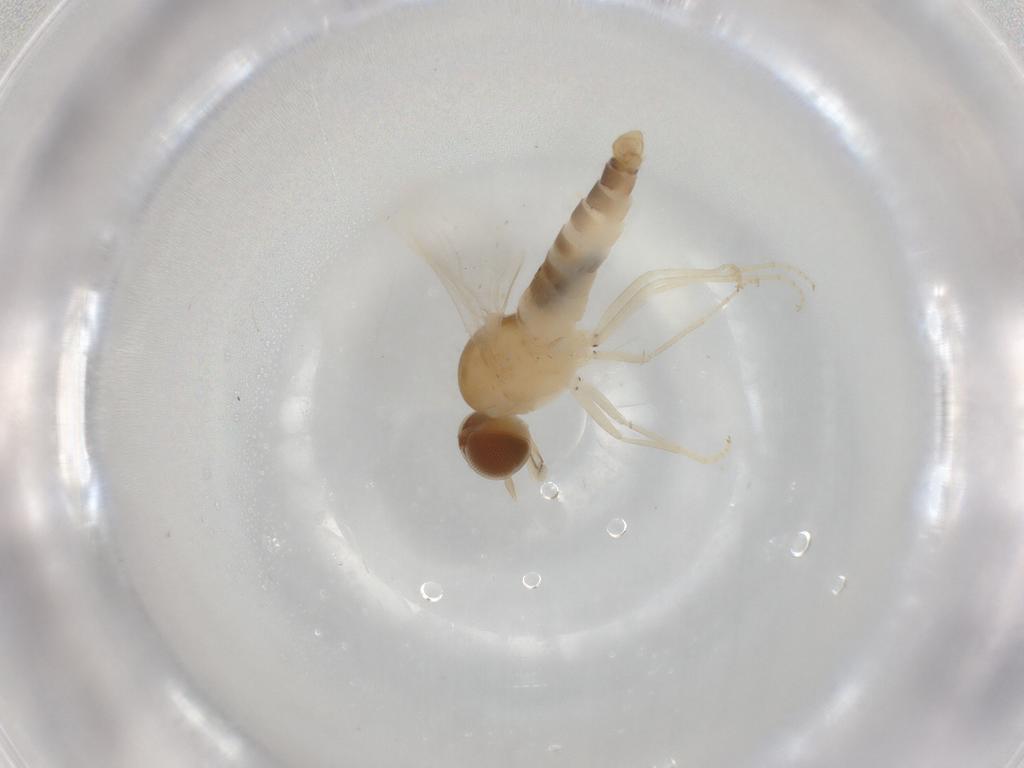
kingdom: Animalia
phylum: Arthropoda
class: Insecta
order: Diptera
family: Scenopinidae
